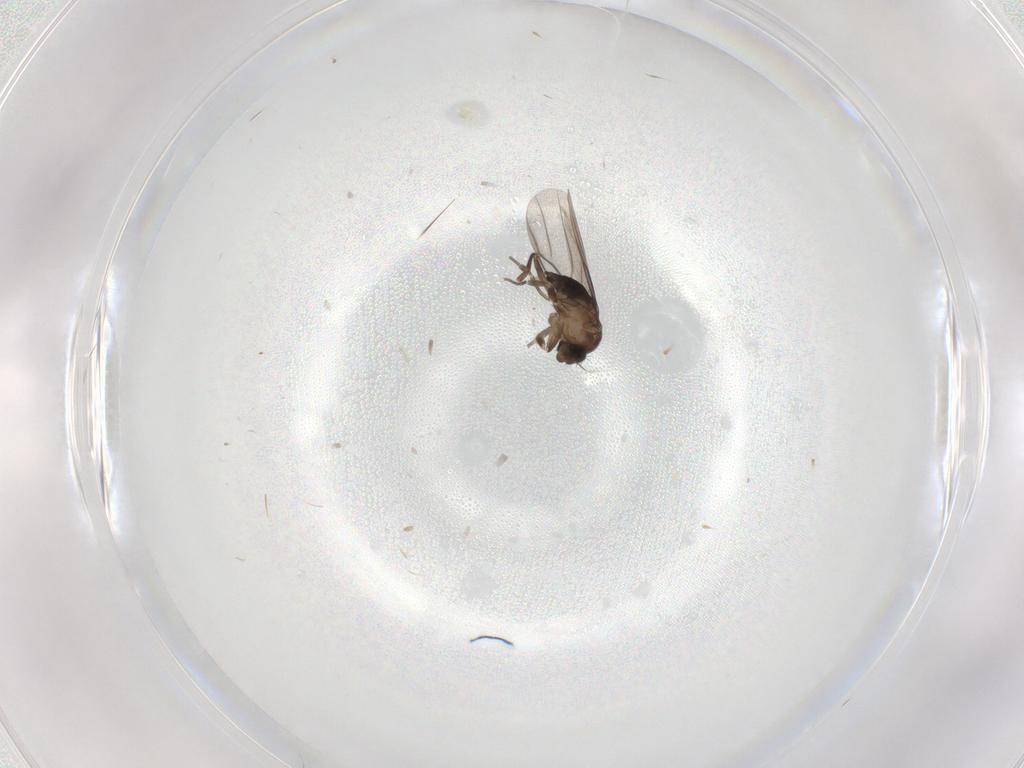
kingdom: Animalia
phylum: Arthropoda
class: Insecta
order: Diptera
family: Phoridae
